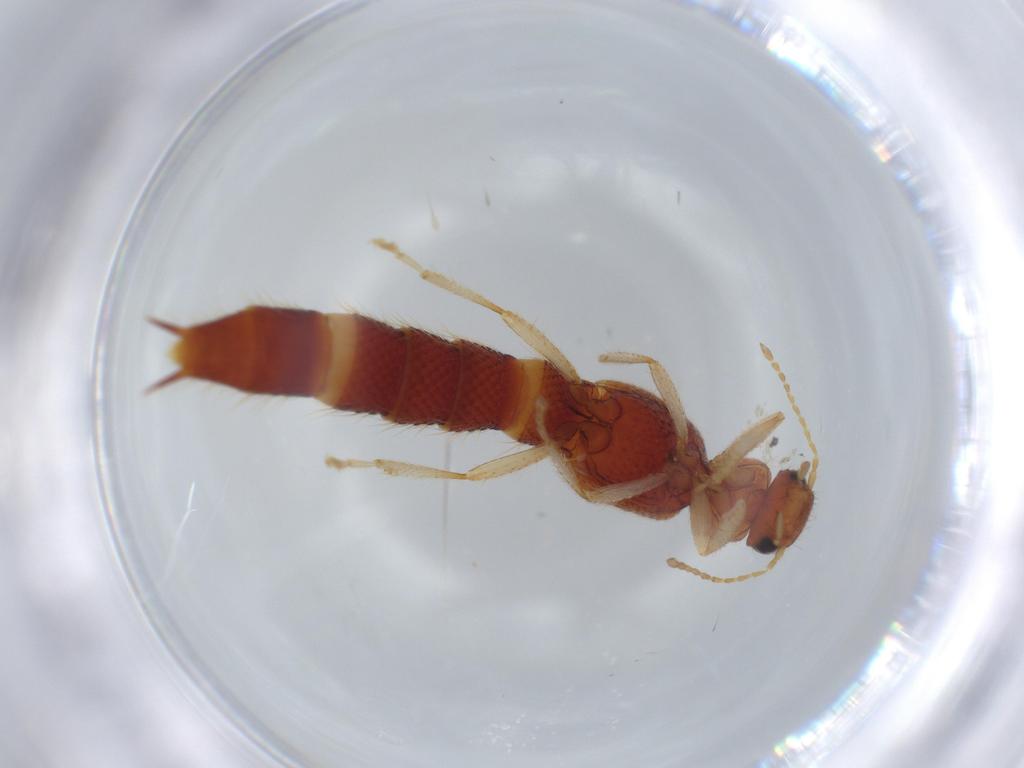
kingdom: Animalia
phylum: Arthropoda
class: Insecta
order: Coleoptera
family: Staphylinidae
